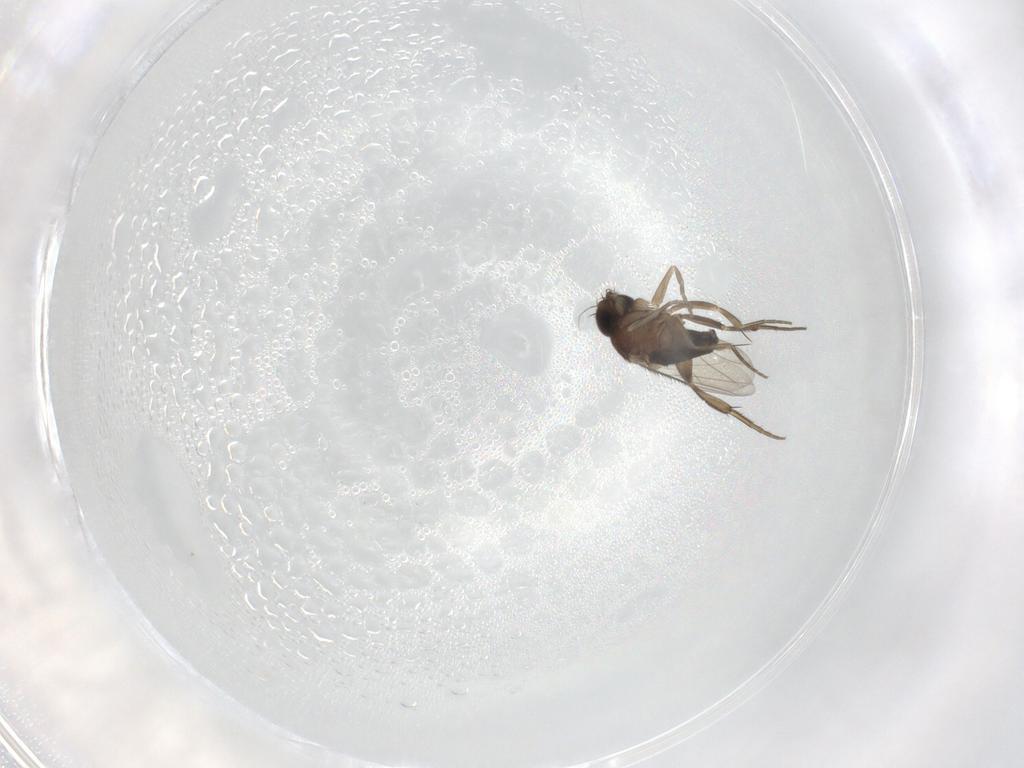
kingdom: Animalia
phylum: Arthropoda
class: Insecta
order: Diptera
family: Phoridae
